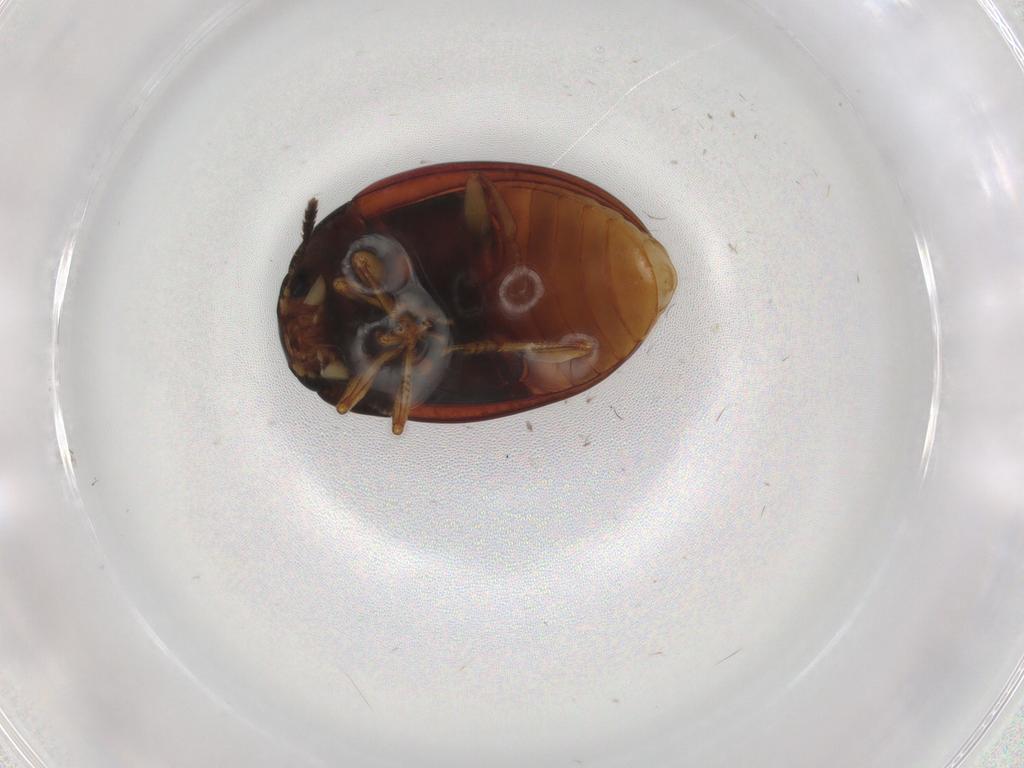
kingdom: Animalia
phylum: Arthropoda
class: Insecta
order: Coleoptera
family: Erotylidae
